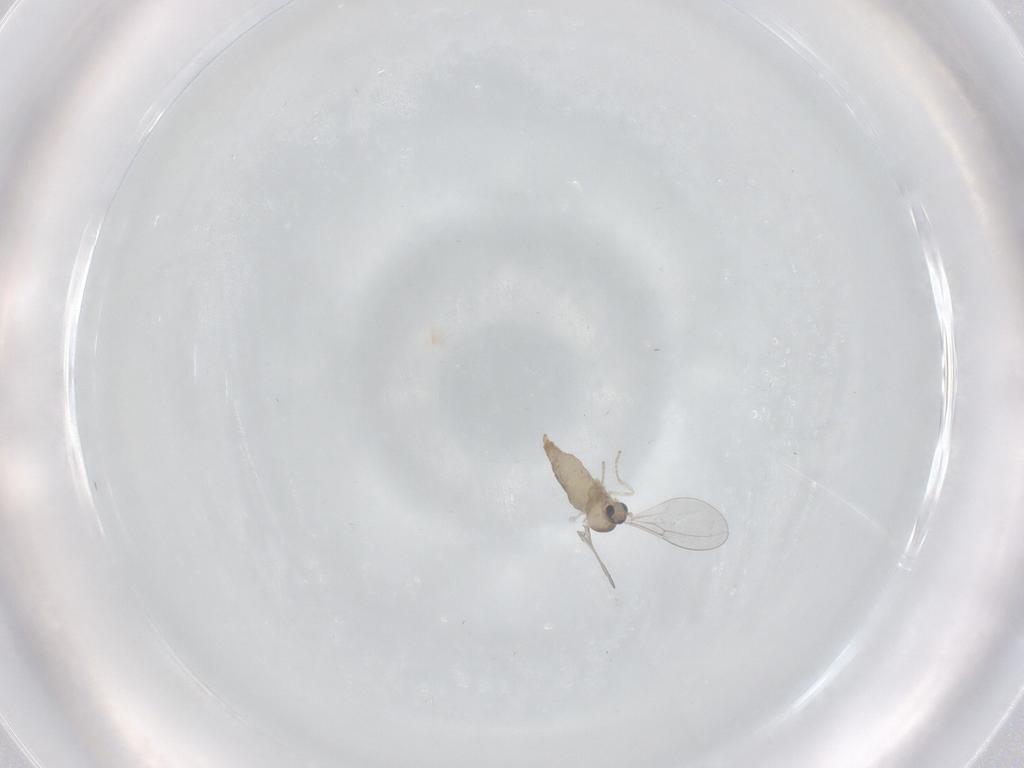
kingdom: Animalia
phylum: Arthropoda
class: Insecta
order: Diptera
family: Cecidomyiidae
